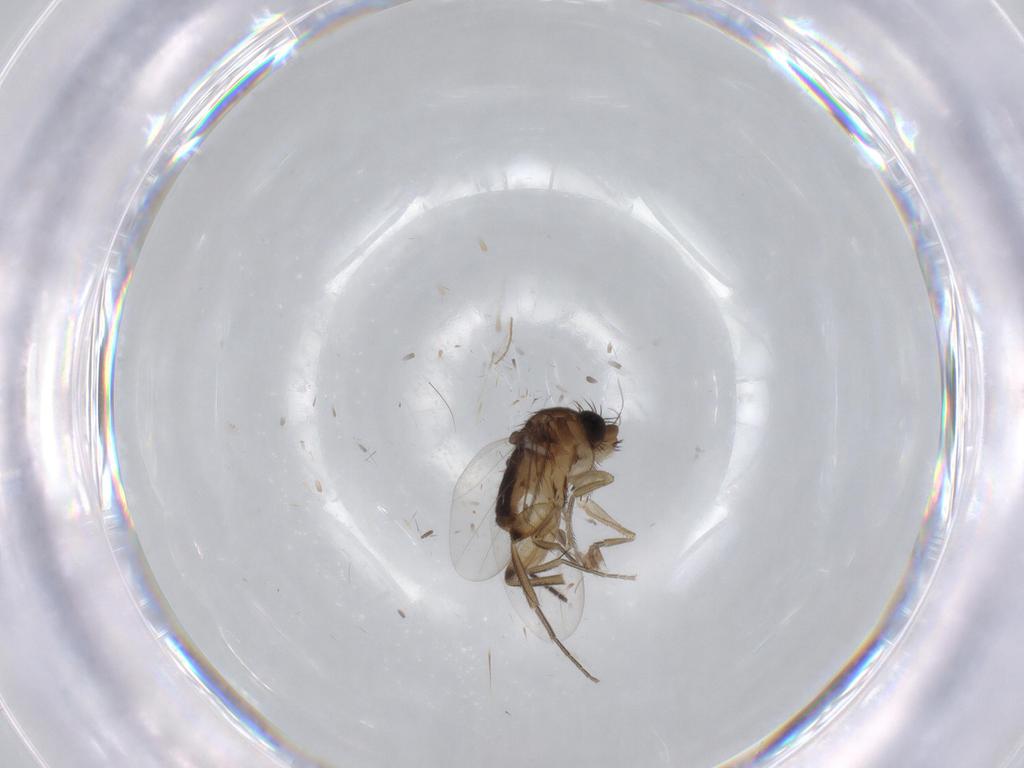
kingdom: Animalia
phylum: Arthropoda
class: Insecta
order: Diptera
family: Phoridae
